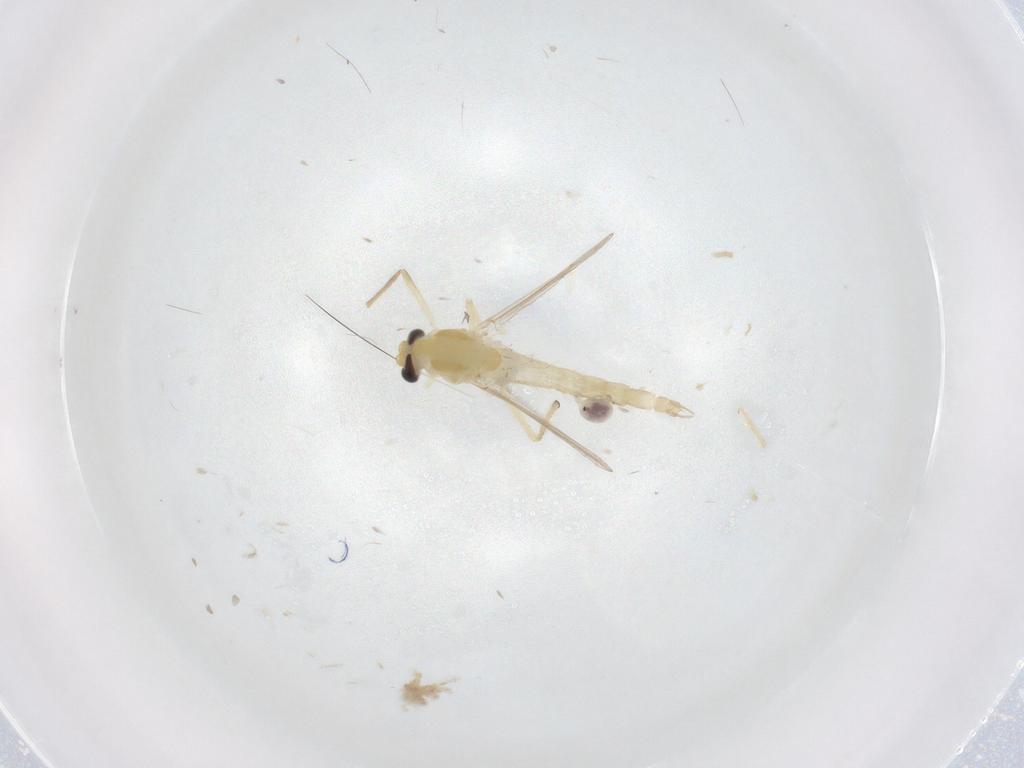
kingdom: Animalia
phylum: Arthropoda
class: Insecta
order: Diptera
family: Chironomidae
